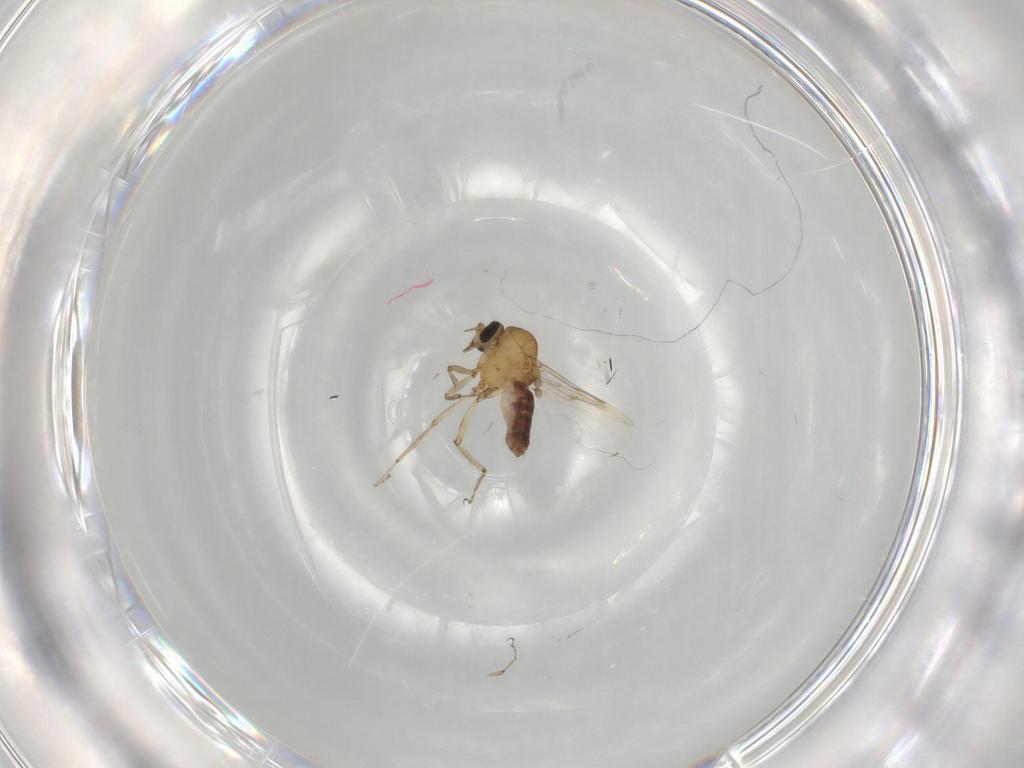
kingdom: Animalia
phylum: Arthropoda
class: Insecta
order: Diptera
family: Ceratopogonidae
